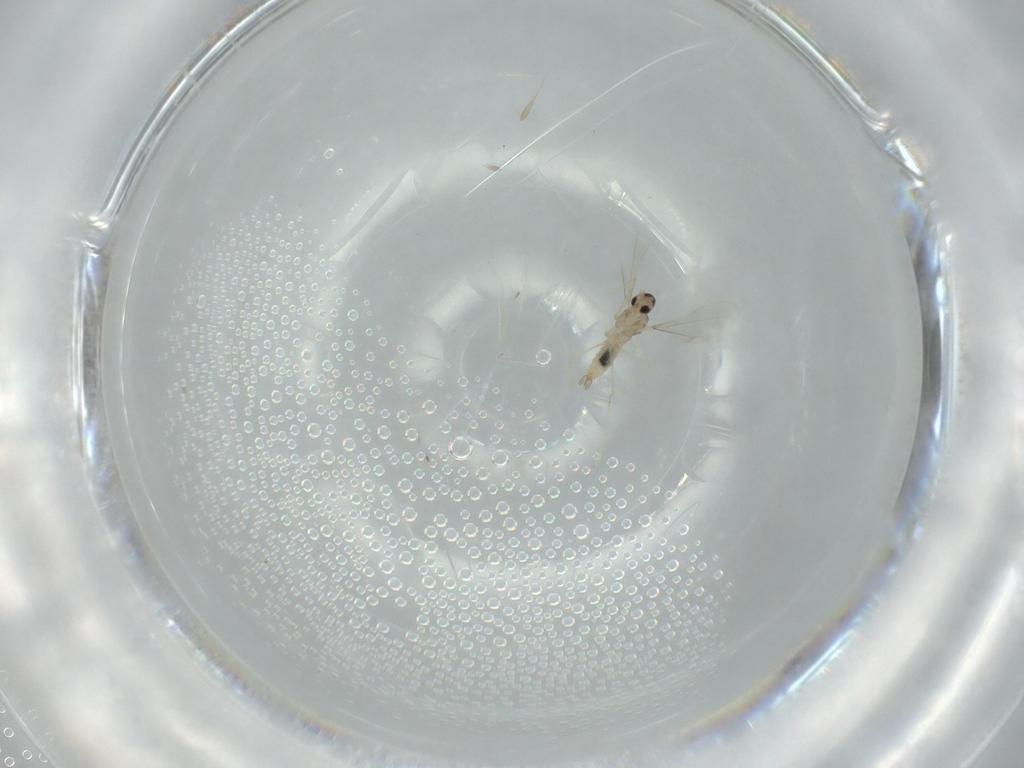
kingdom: Animalia
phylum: Arthropoda
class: Insecta
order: Diptera
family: Cecidomyiidae
